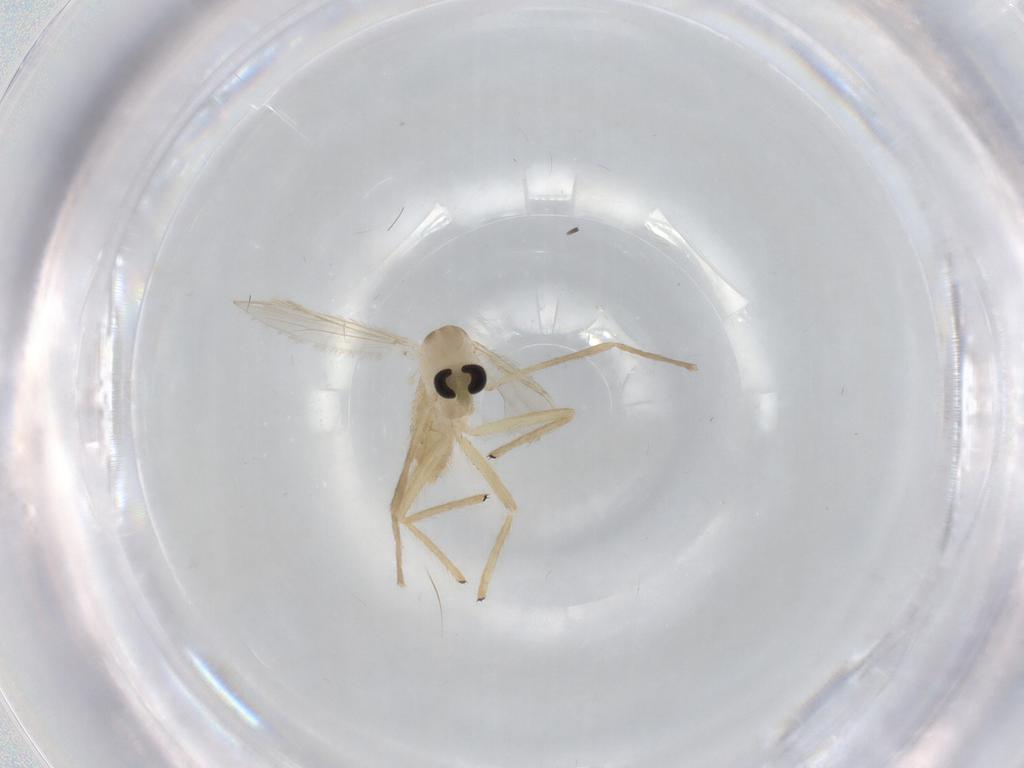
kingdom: Animalia
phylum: Arthropoda
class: Insecta
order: Diptera
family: Chironomidae
